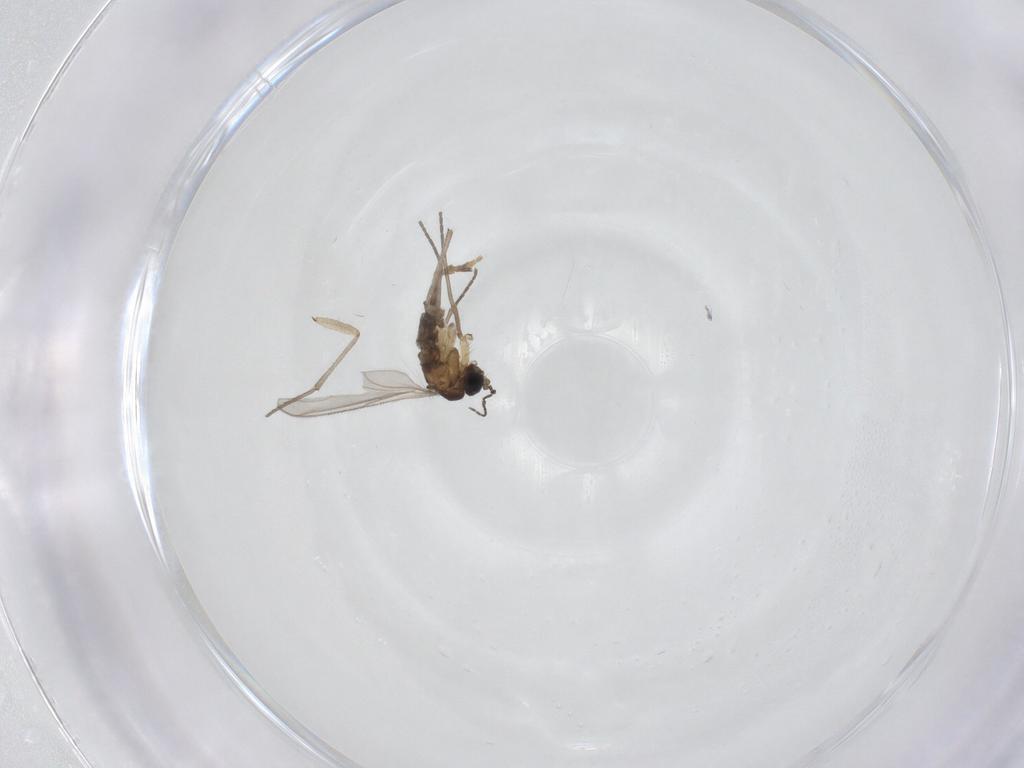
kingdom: Animalia
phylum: Arthropoda
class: Insecta
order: Diptera
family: Sciaridae
